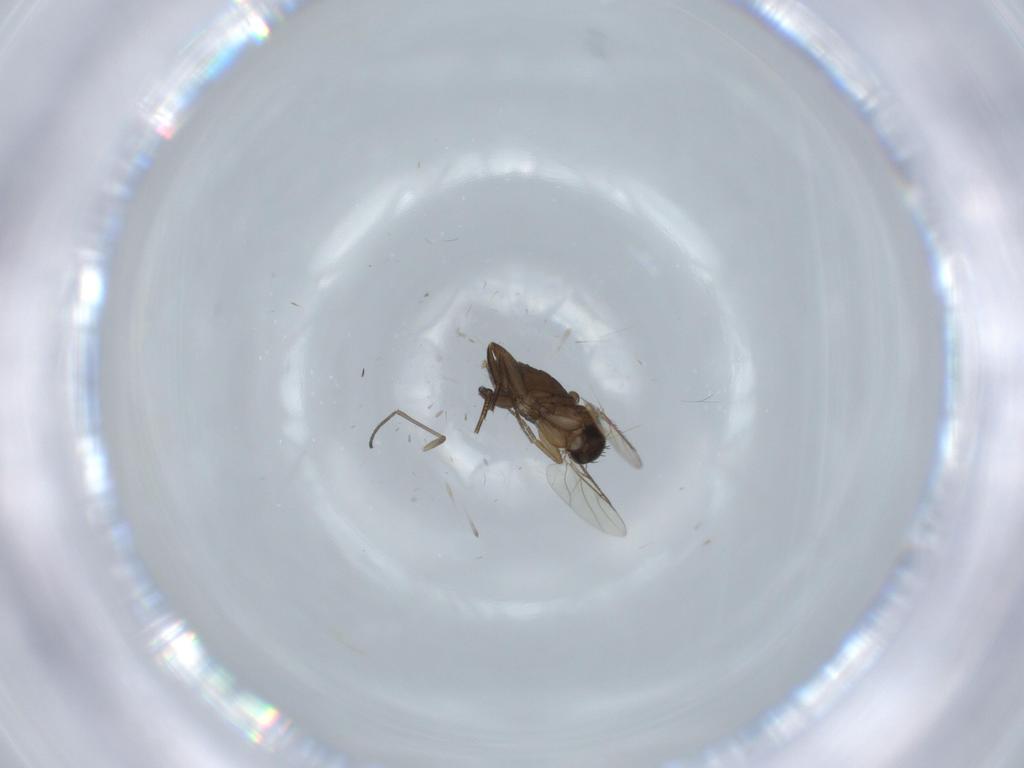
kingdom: Animalia
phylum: Arthropoda
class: Insecta
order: Diptera
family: Phoridae
